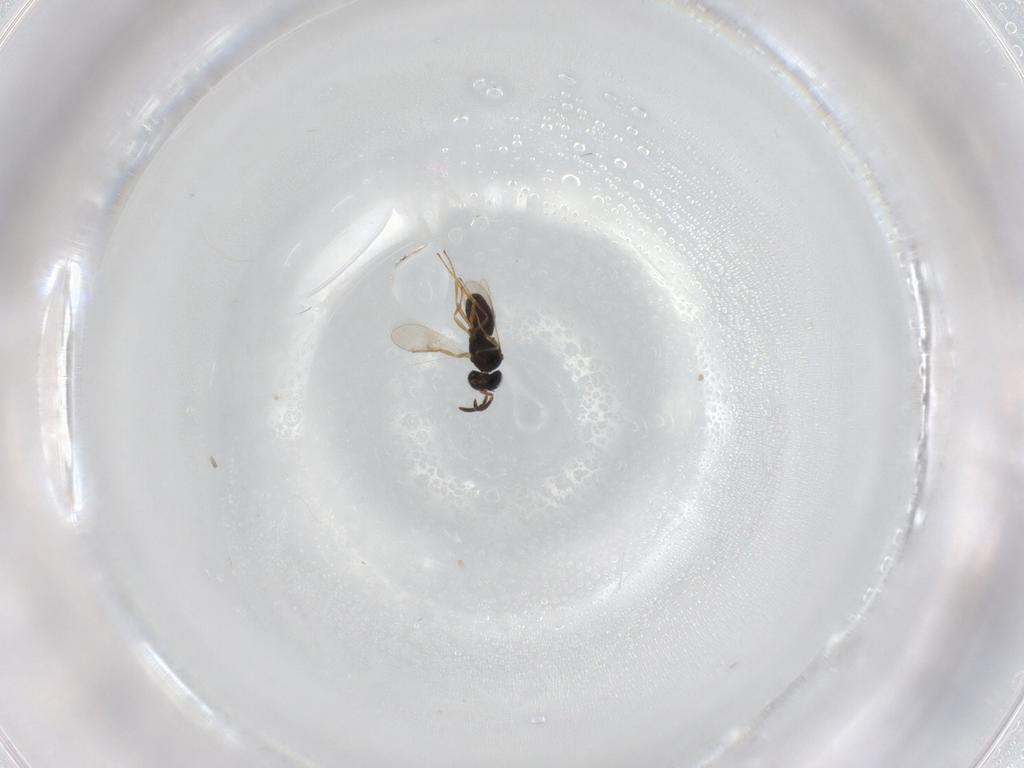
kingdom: Animalia
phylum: Arthropoda
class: Insecta
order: Hymenoptera
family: Scelionidae
